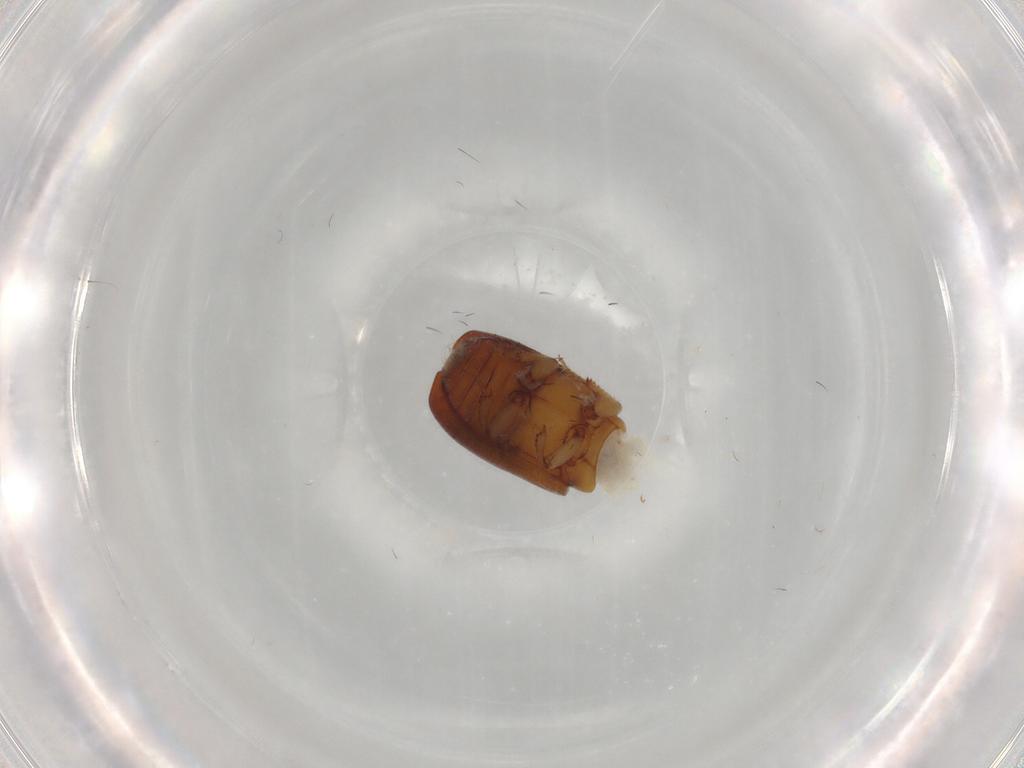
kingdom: Animalia
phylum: Arthropoda
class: Insecta
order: Coleoptera
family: Curculionidae
